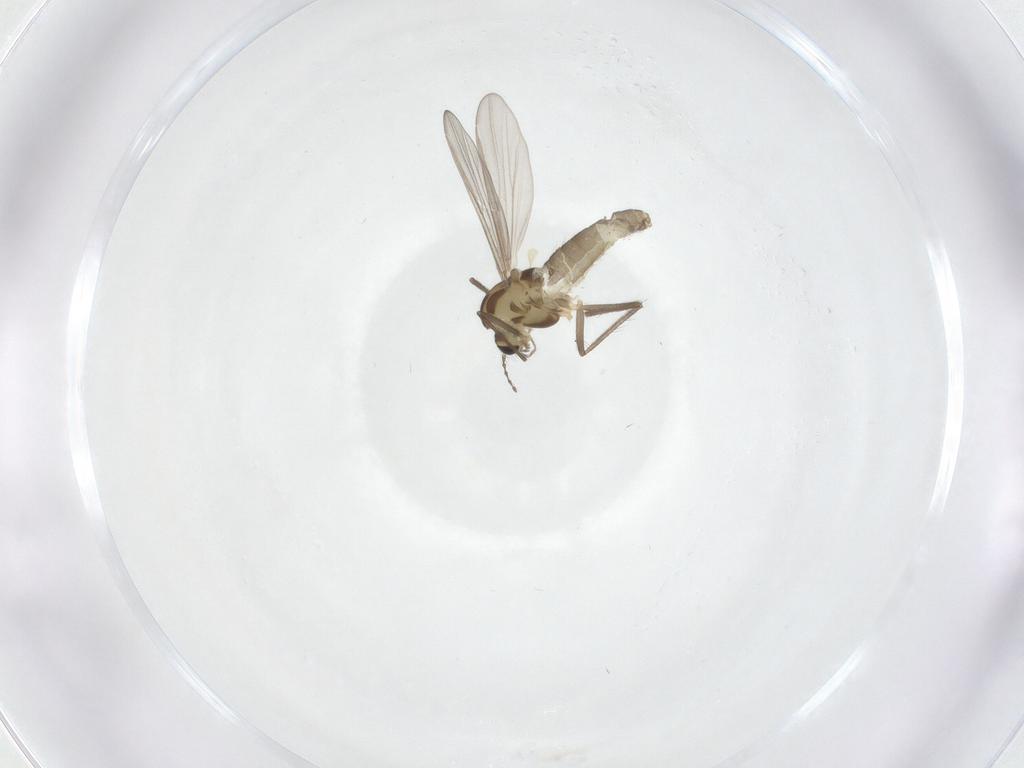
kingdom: Animalia
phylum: Arthropoda
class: Insecta
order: Diptera
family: Chironomidae
